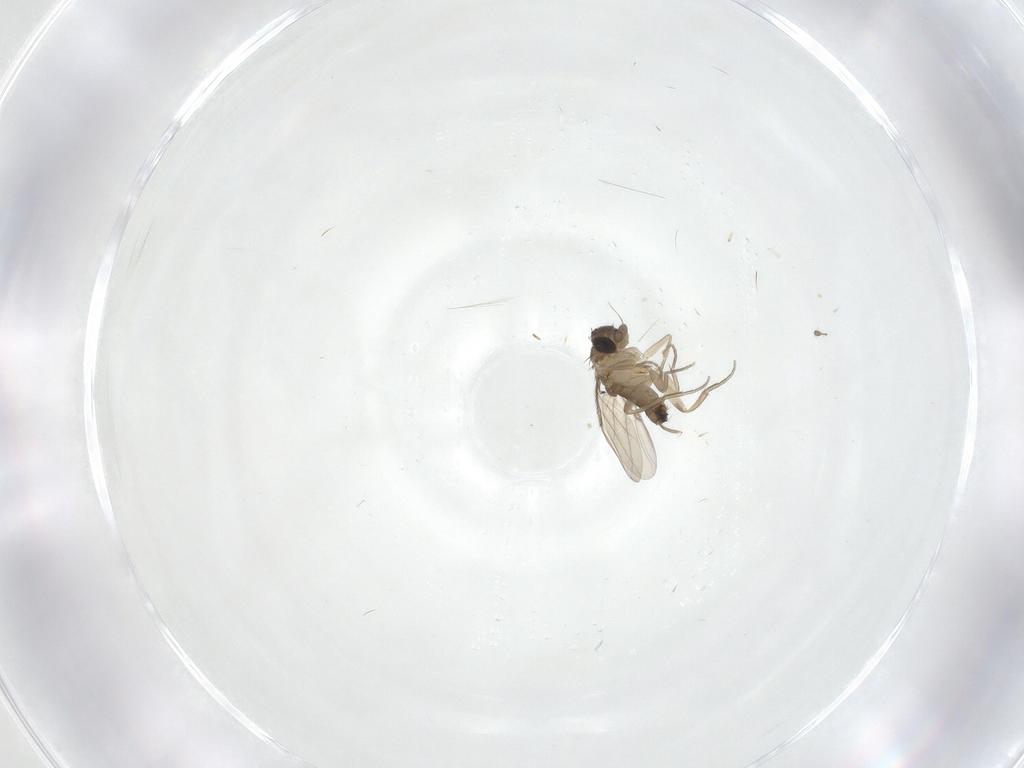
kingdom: Animalia
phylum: Arthropoda
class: Insecta
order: Diptera
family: Phoridae
